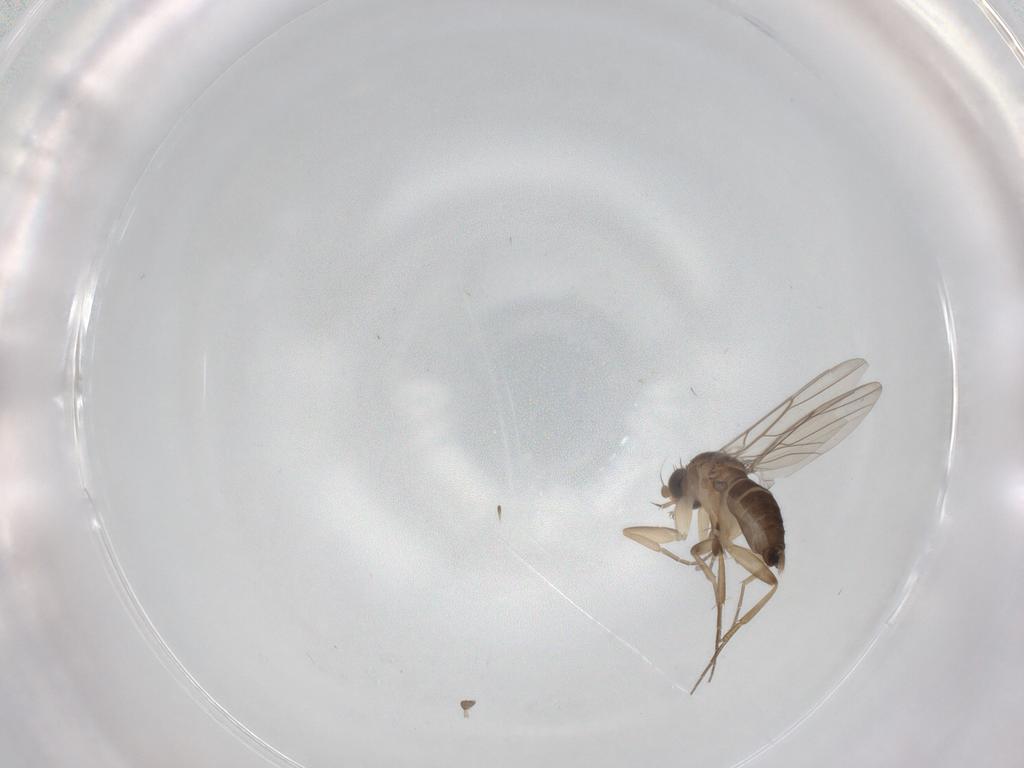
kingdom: Animalia
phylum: Arthropoda
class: Insecta
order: Diptera
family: Phoridae
